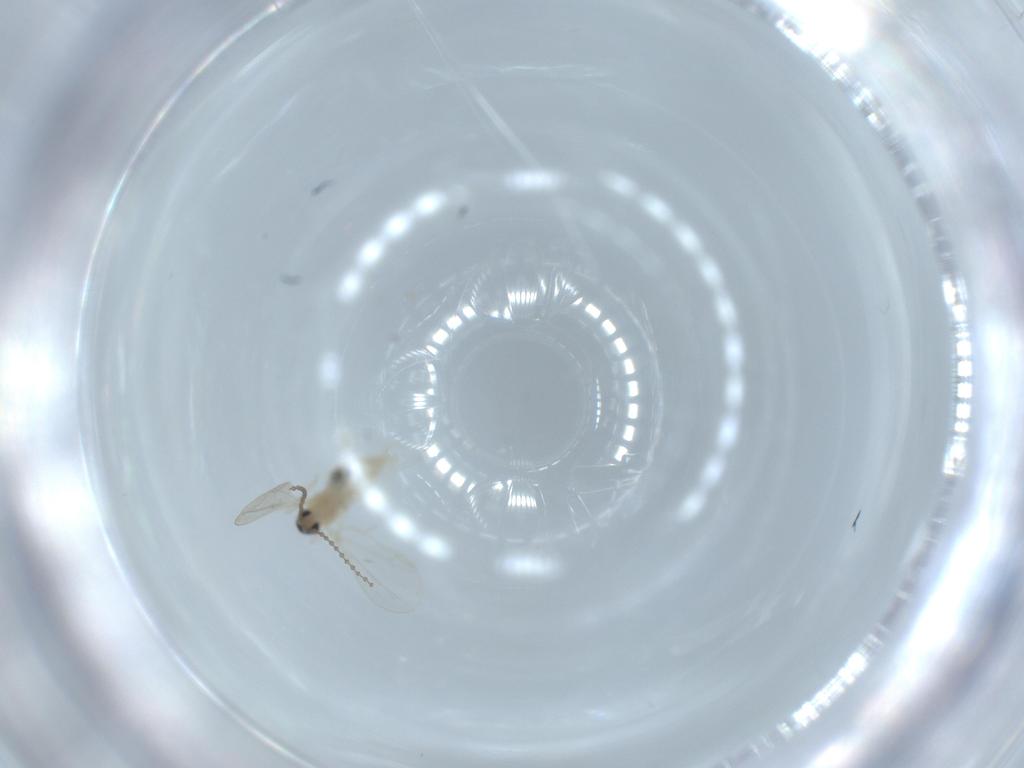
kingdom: Animalia
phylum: Arthropoda
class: Insecta
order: Diptera
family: Cecidomyiidae
